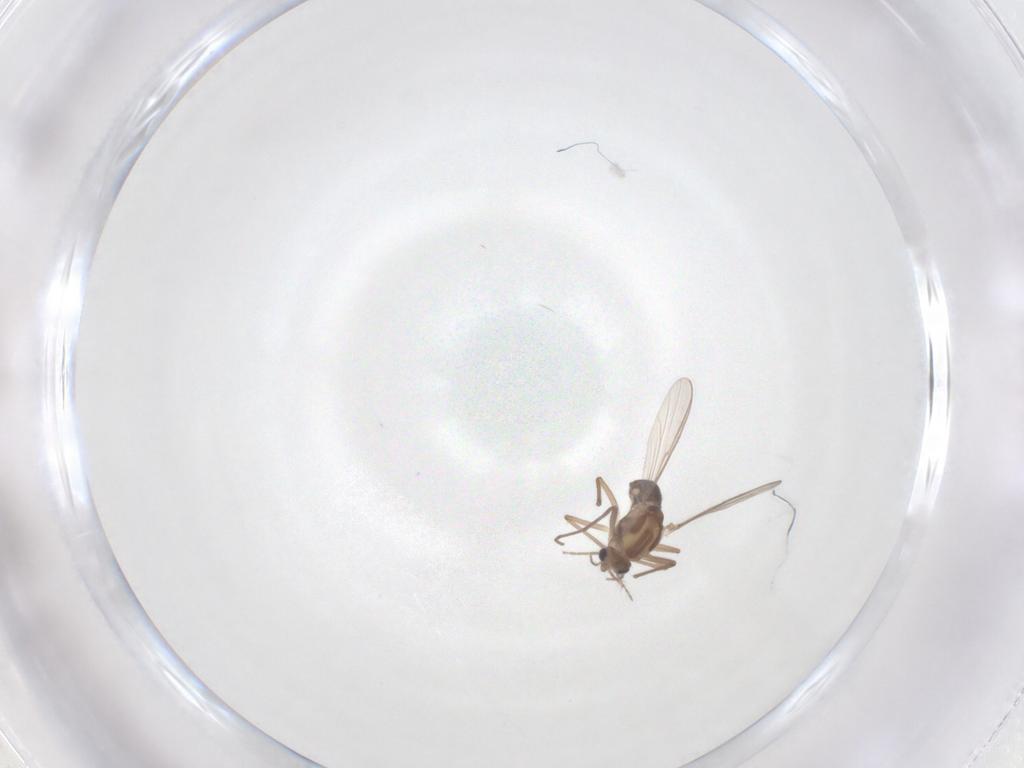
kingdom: Animalia
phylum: Arthropoda
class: Insecta
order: Diptera
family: Chironomidae
